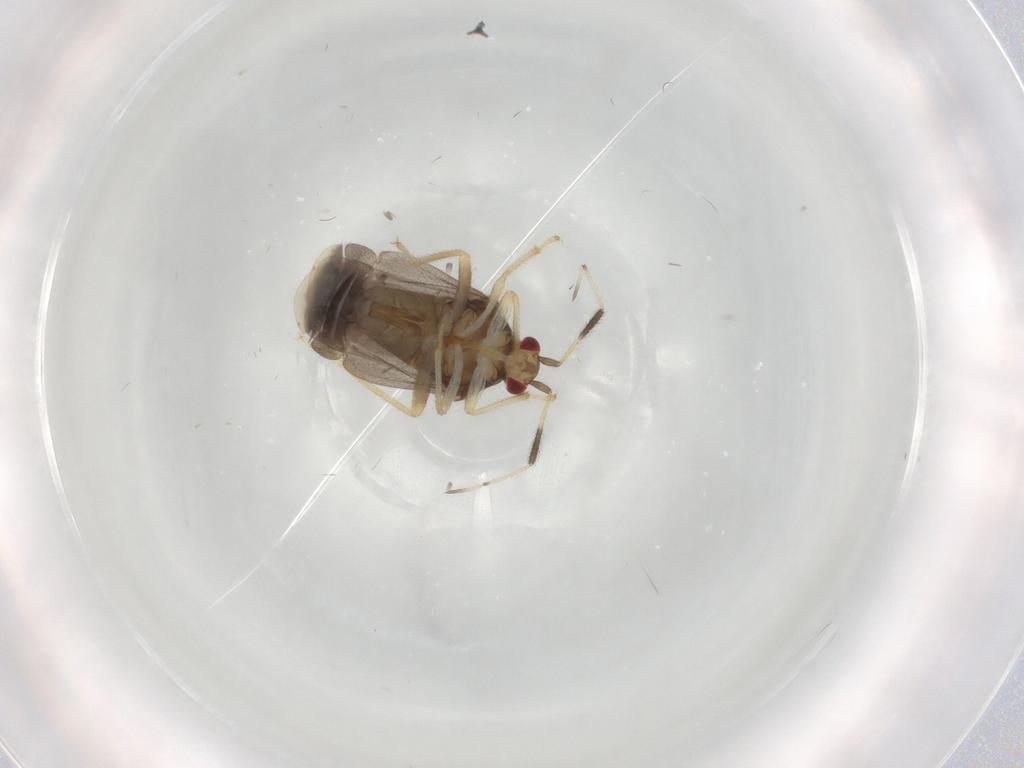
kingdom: Animalia
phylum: Arthropoda
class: Insecta
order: Hemiptera
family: Miridae
